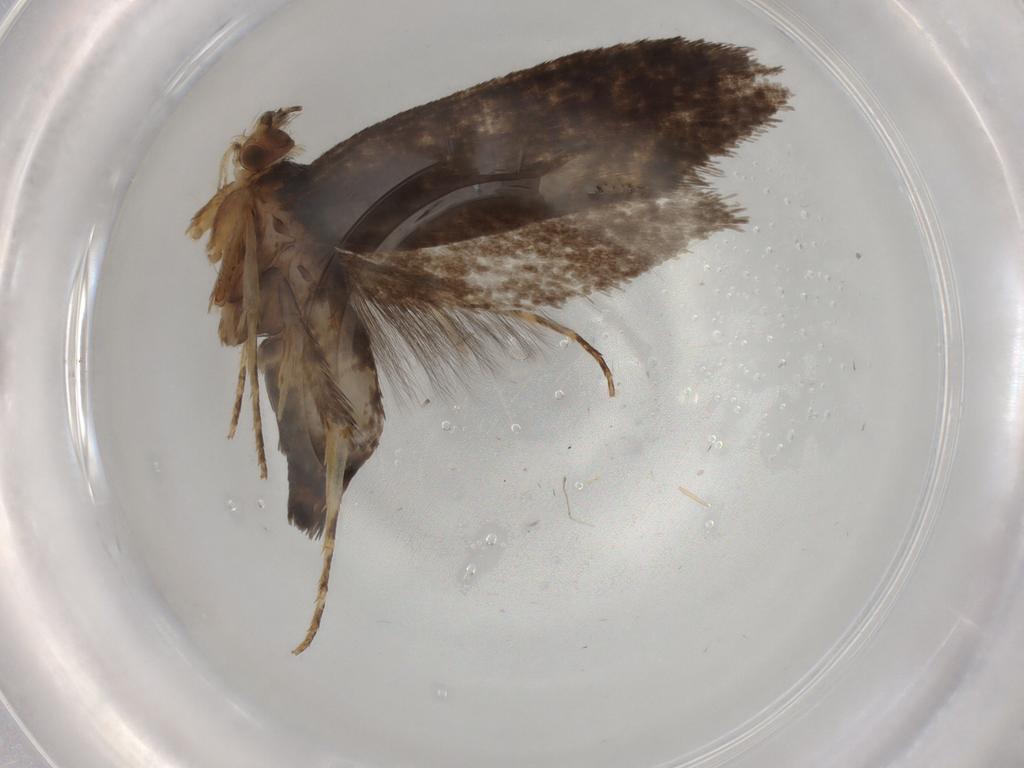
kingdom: Animalia
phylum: Arthropoda
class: Insecta
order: Lepidoptera
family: Tineidae
